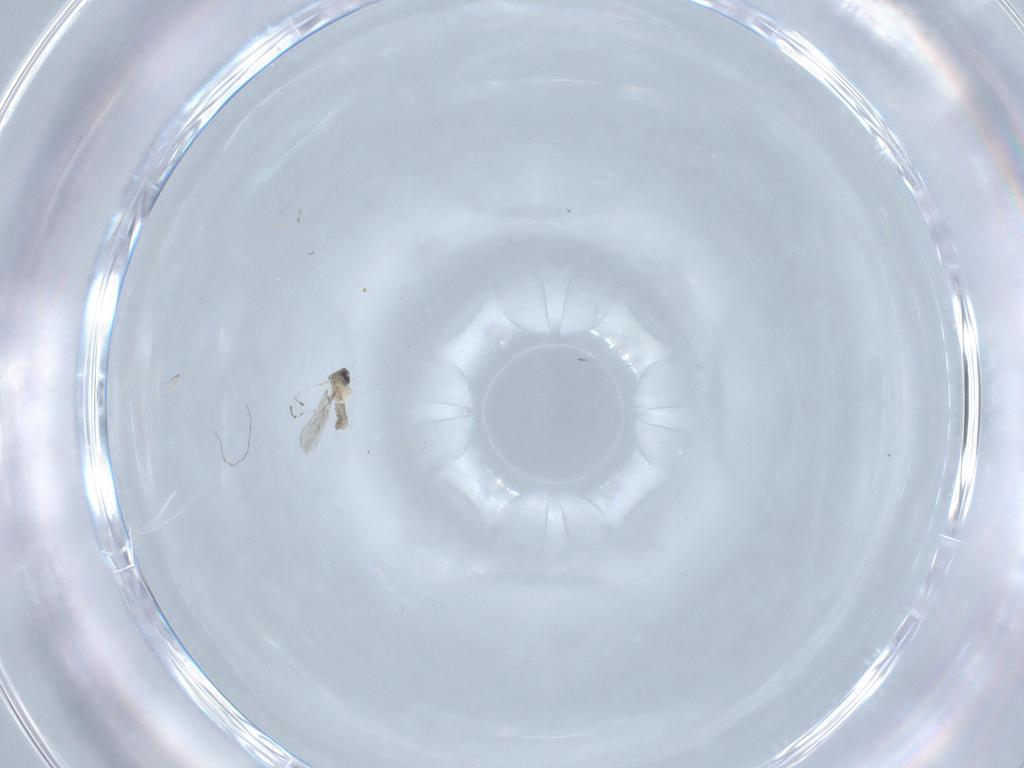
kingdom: Animalia
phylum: Arthropoda
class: Insecta
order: Diptera
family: Cecidomyiidae
